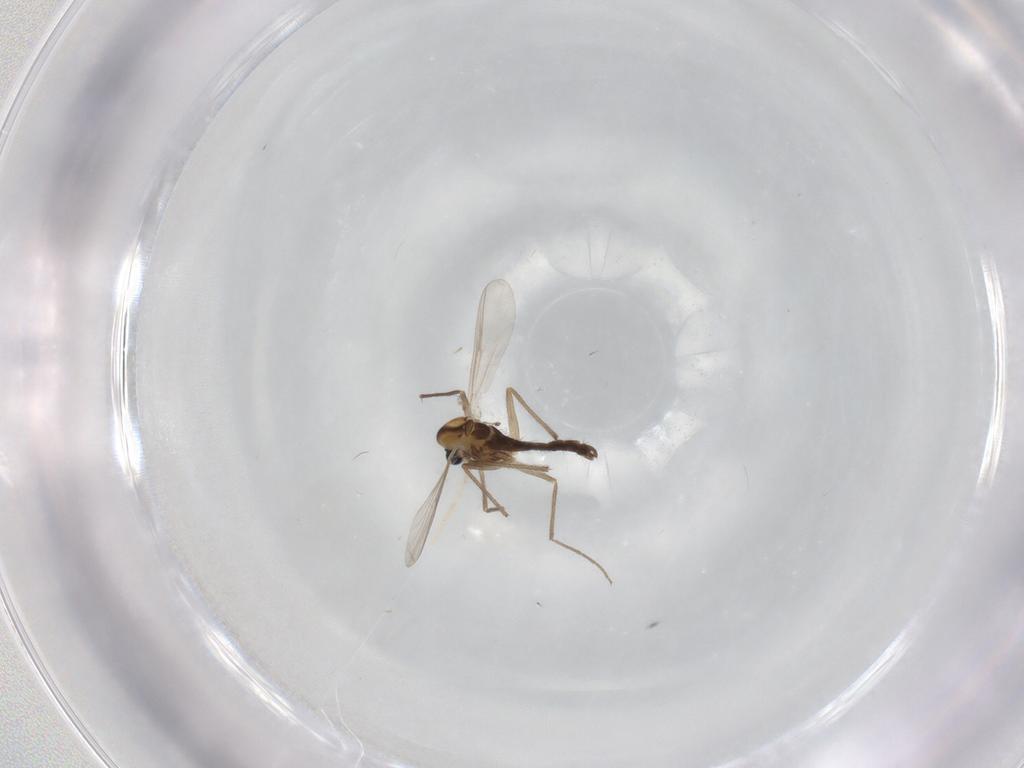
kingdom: Animalia
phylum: Arthropoda
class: Insecta
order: Diptera
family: Chironomidae
